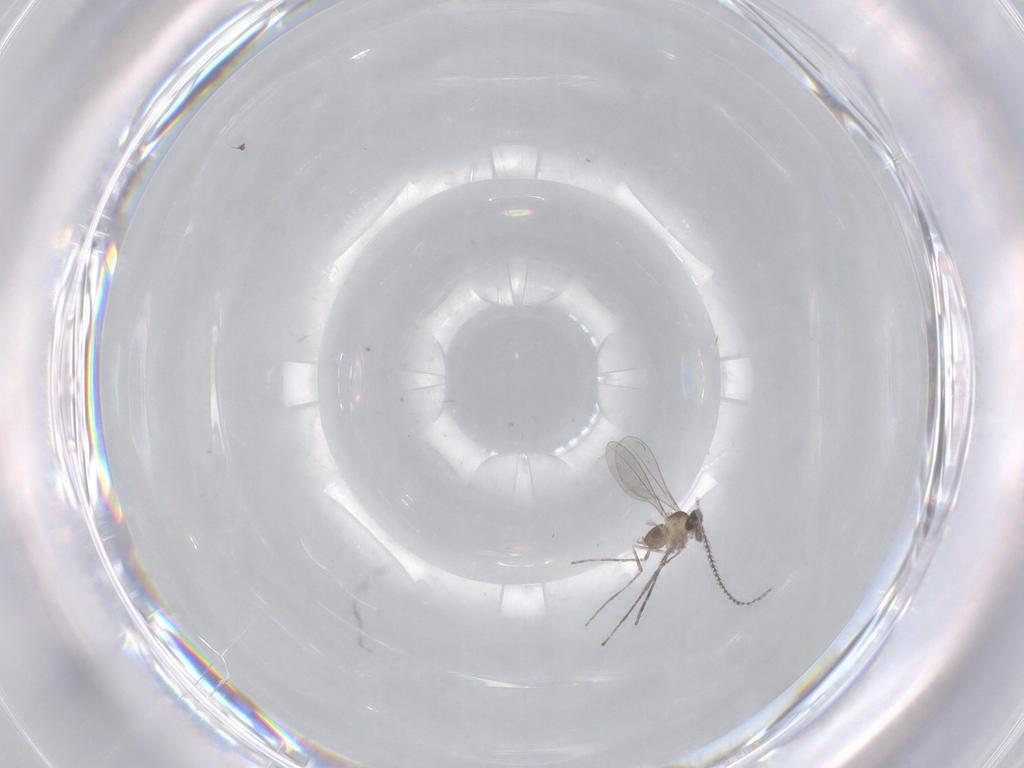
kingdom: Animalia
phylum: Arthropoda
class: Insecta
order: Diptera
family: Cecidomyiidae
